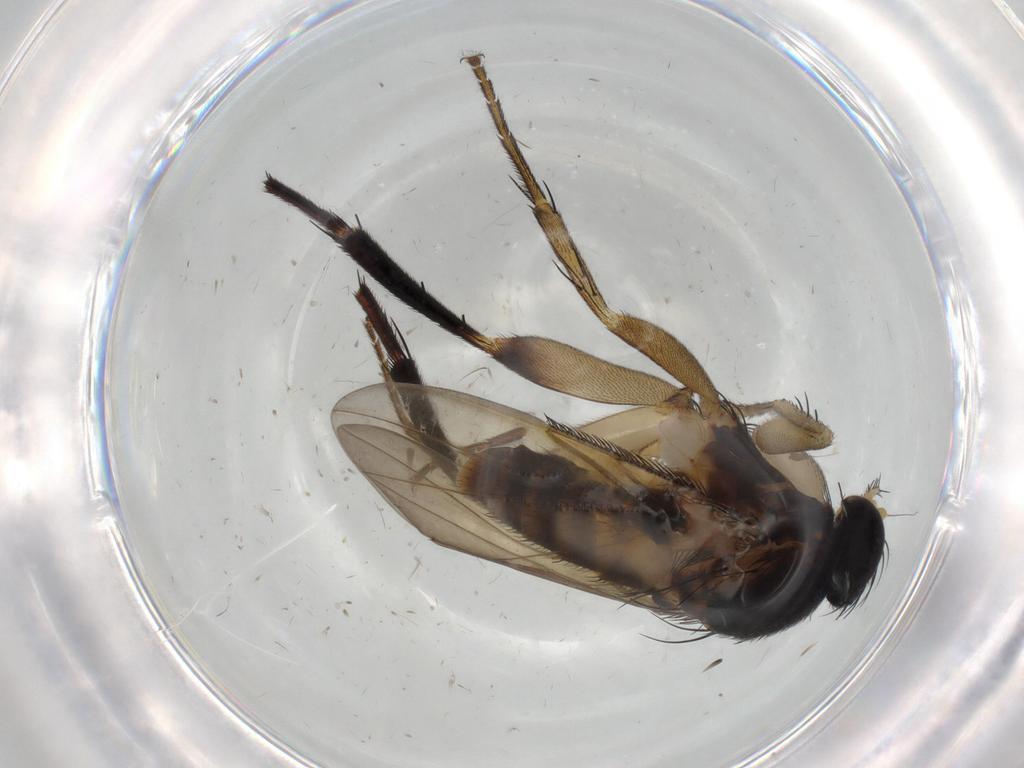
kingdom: Animalia
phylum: Arthropoda
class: Insecta
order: Diptera
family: Phoridae
